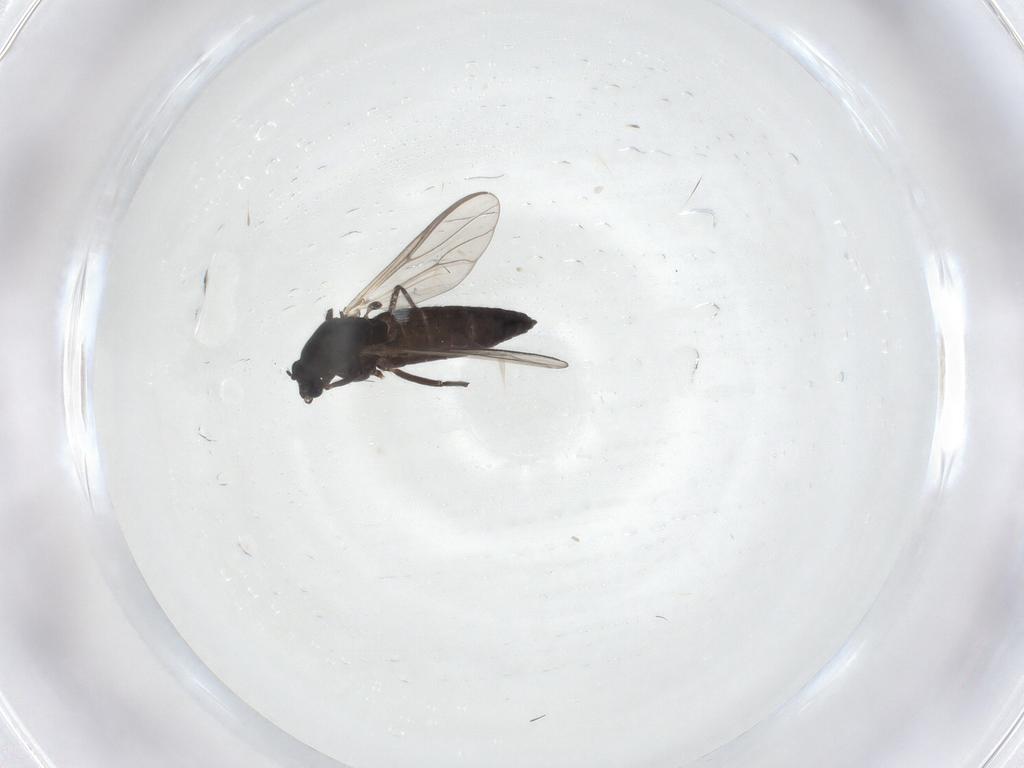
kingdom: Animalia
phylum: Arthropoda
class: Insecta
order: Diptera
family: Chironomidae
